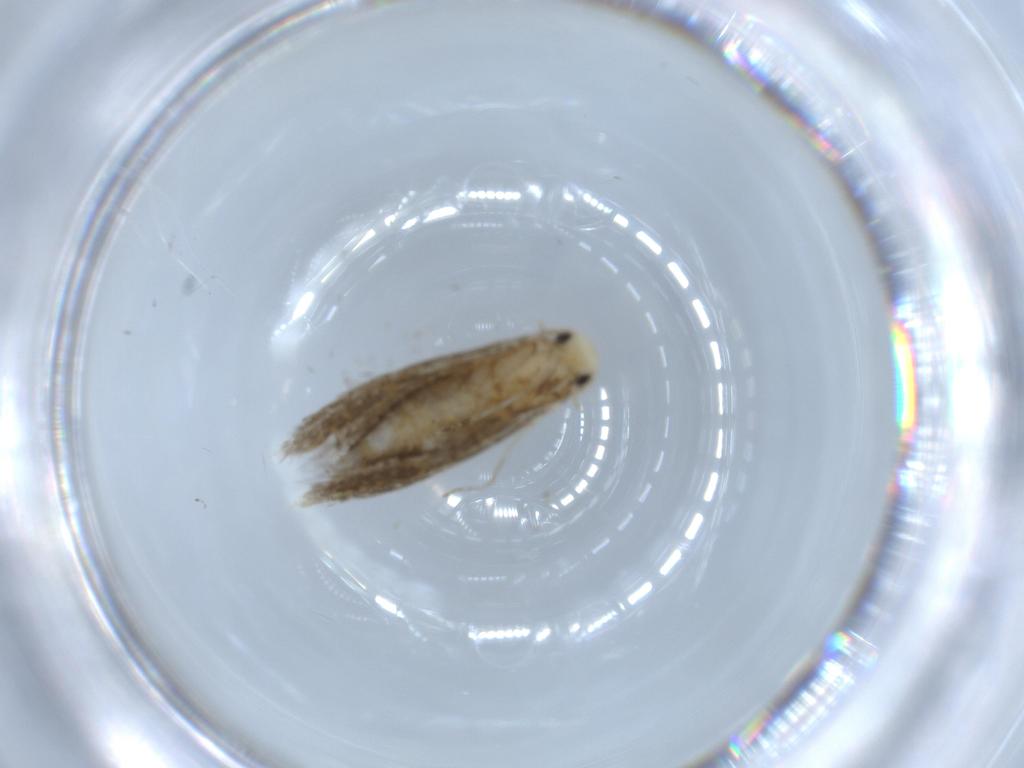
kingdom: Animalia
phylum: Arthropoda
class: Insecta
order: Lepidoptera
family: Tineidae
